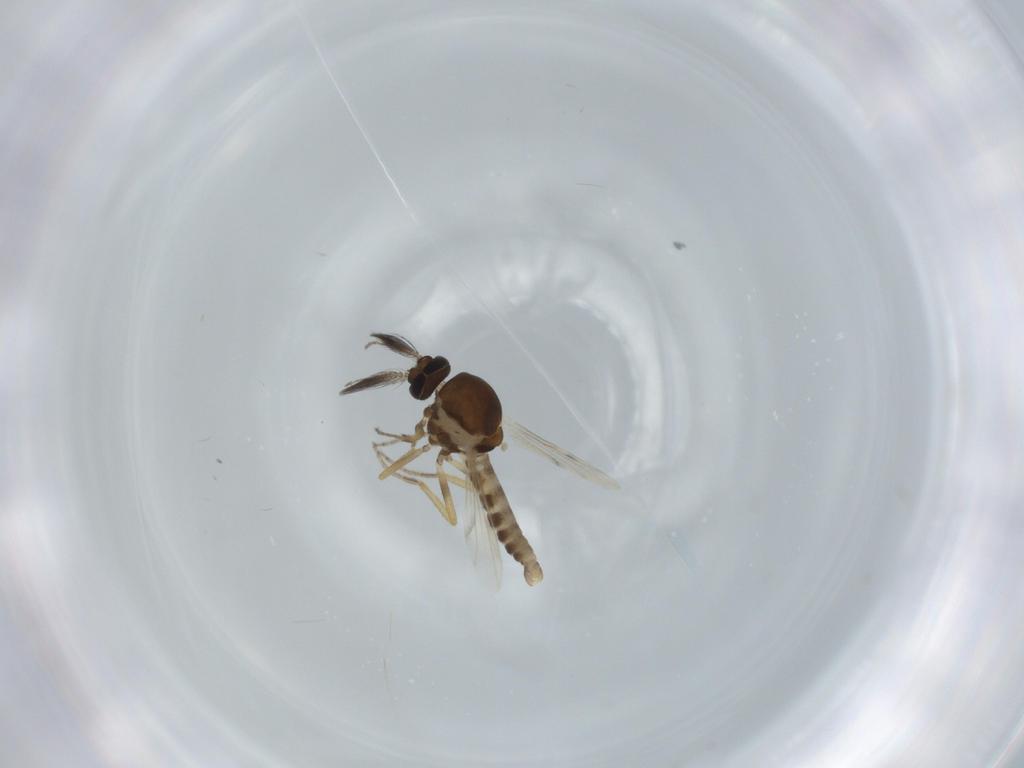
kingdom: Animalia
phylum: Arthropoda
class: Insecta
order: Diptera
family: Ceratopogonidae
